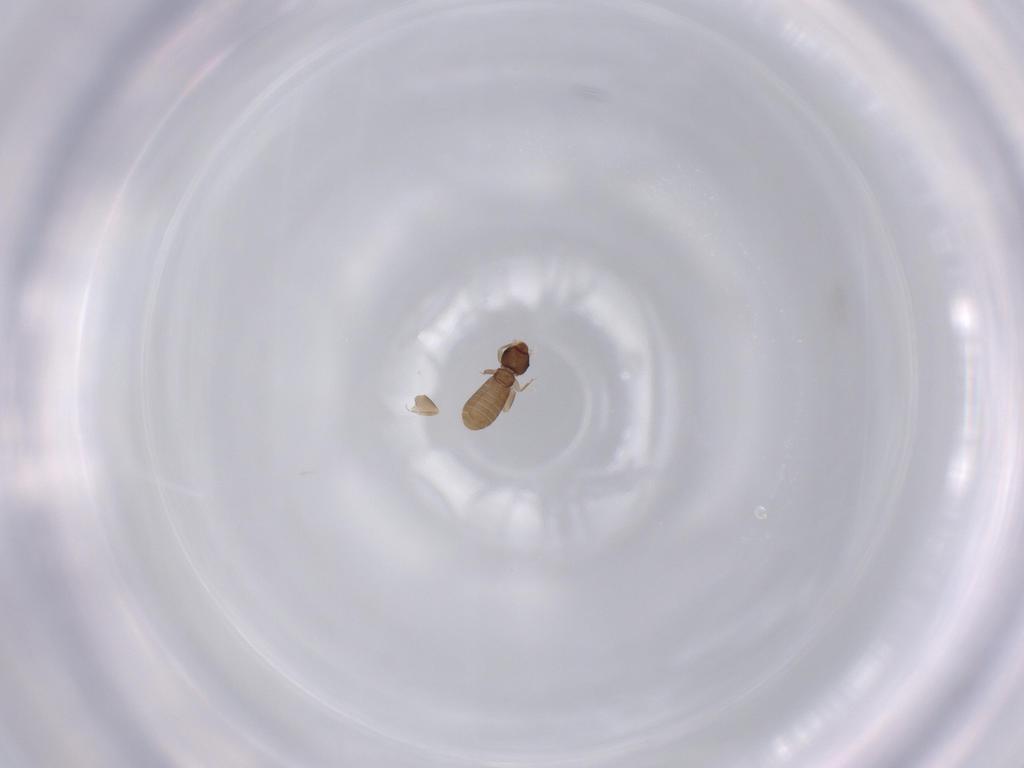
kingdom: Animalia
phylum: Arthropoda
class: Insecta
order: Psocodea
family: Liposcelididae
